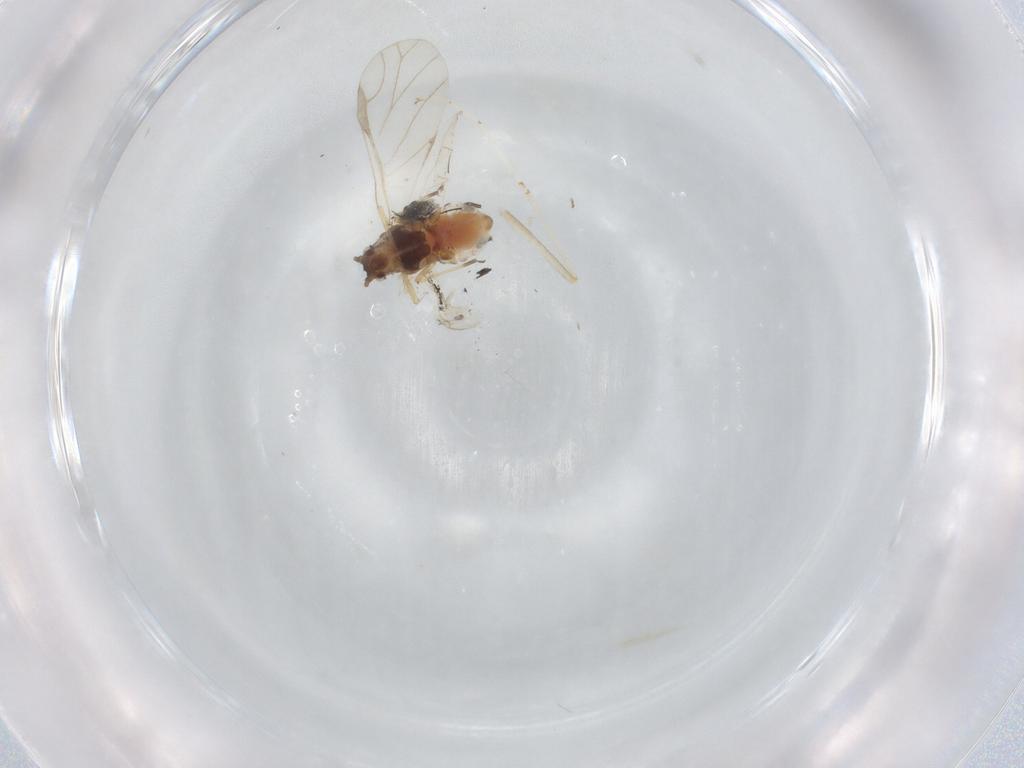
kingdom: Animalia
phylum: Arthropoda
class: Insecta
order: Hemiptera
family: Aphididae
